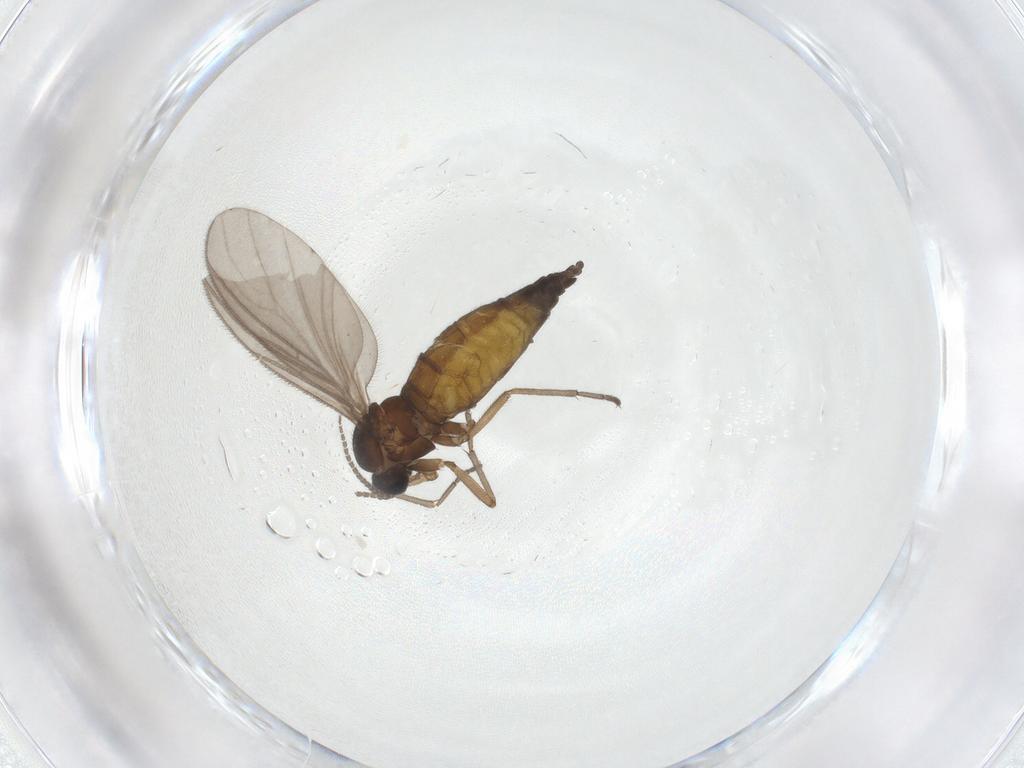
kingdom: Animalia
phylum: Arthropoda
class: Insecta
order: Diptera
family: Sciaridae
